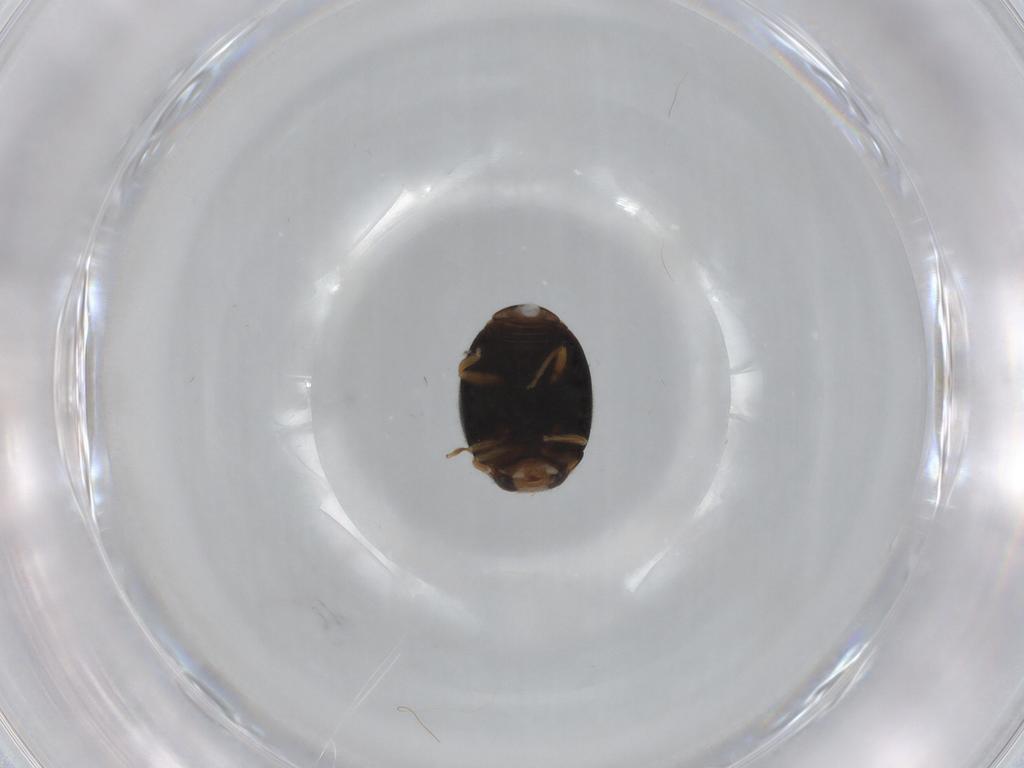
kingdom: Animalia
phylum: Arthropoda
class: Insecta
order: Coleoptera
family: Coccinellidae
